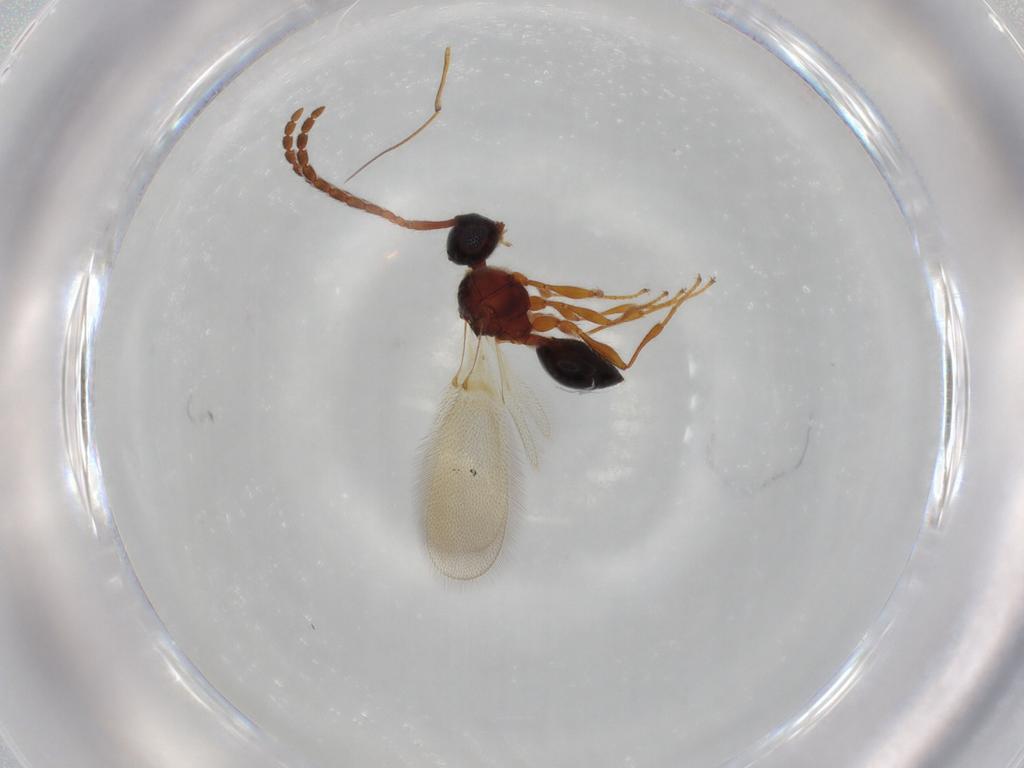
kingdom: Animalia
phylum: Arthropoda
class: Insecta
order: Hymenoptera
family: Diapriidae
